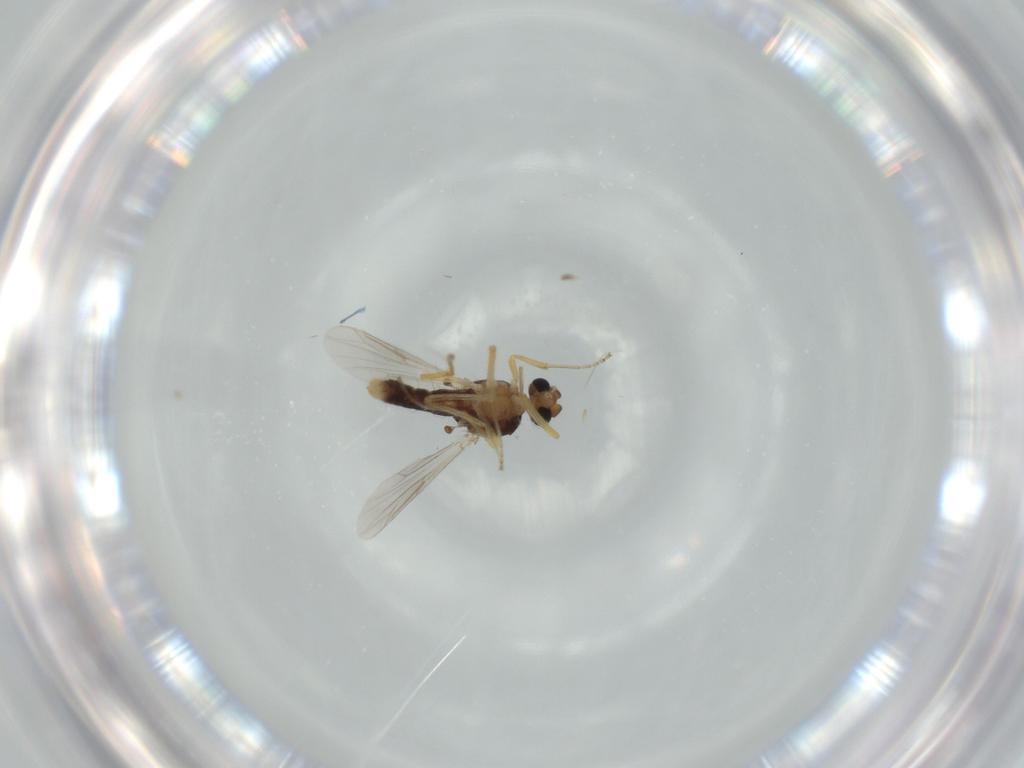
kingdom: Animalia
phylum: Arthropoda
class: Insecta
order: Diptera
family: Ceratopogonidae
